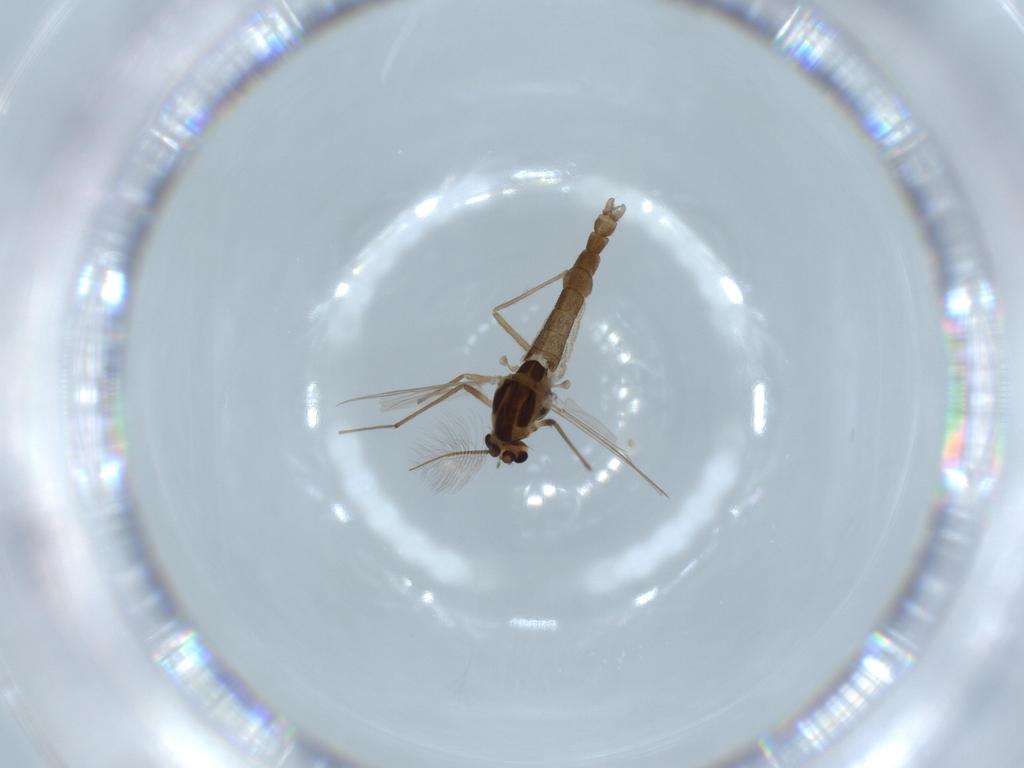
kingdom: Animalia
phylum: Arthropoda
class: Insecta
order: Diptera
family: Chironomidae
